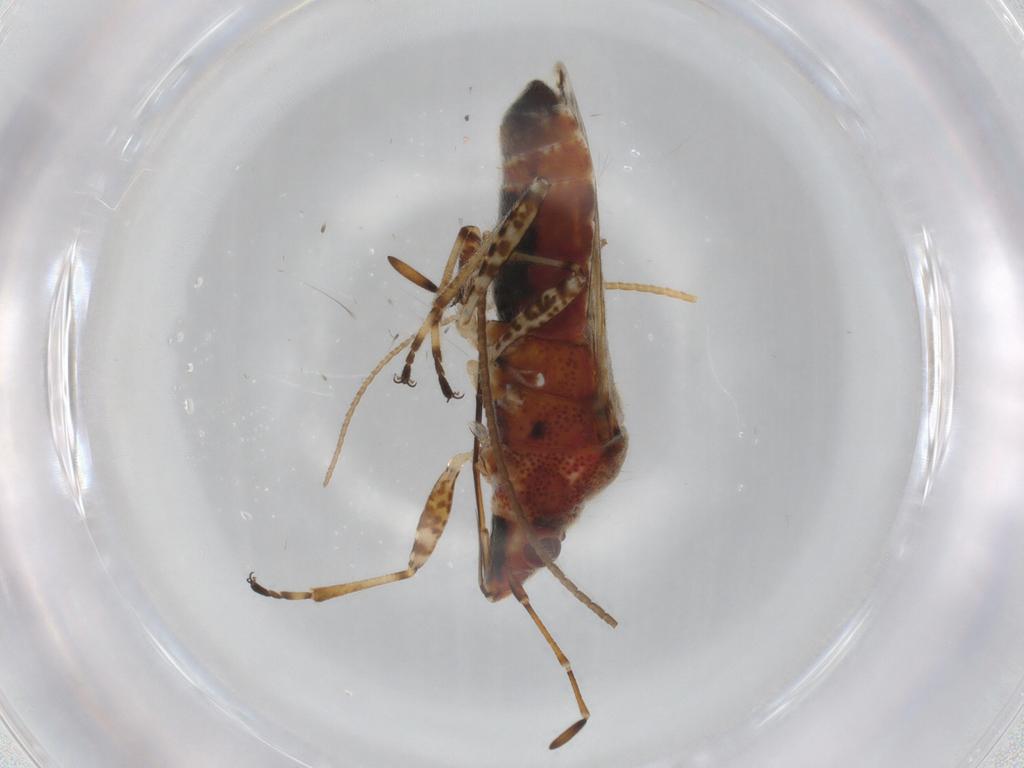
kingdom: Animalia
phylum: Arthropoda
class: Insecta
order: Hemiptera
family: Lygaeidae
